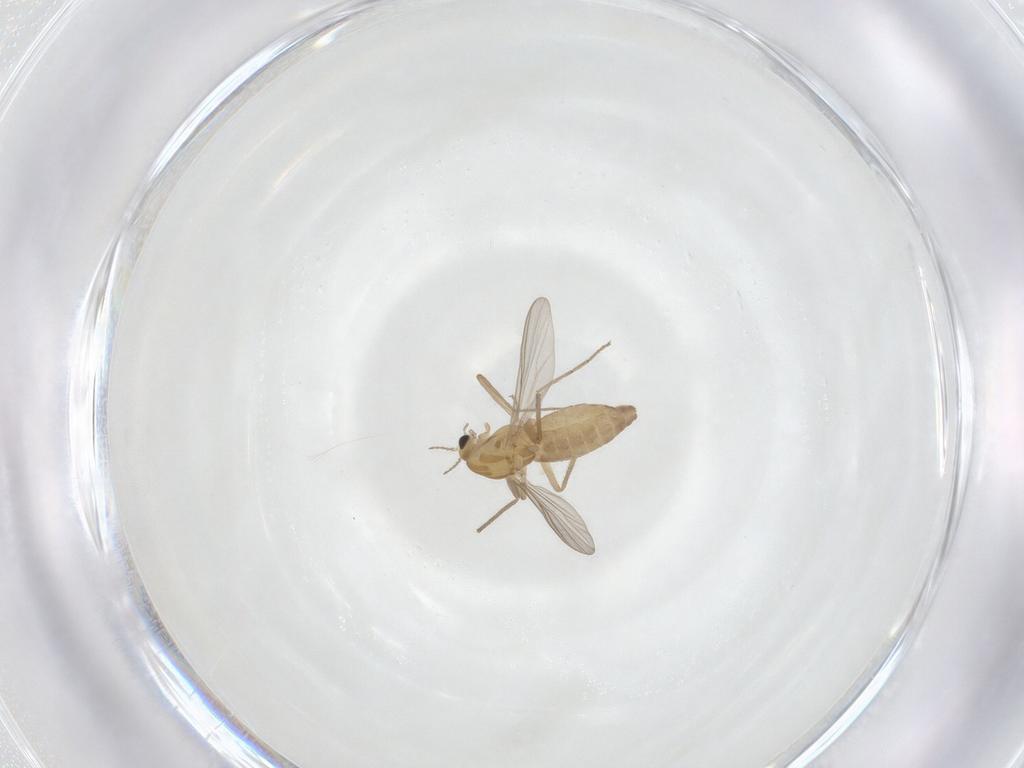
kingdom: Animalia
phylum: Arthropoda
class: Insecta
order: Diptera
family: Chironomidae
